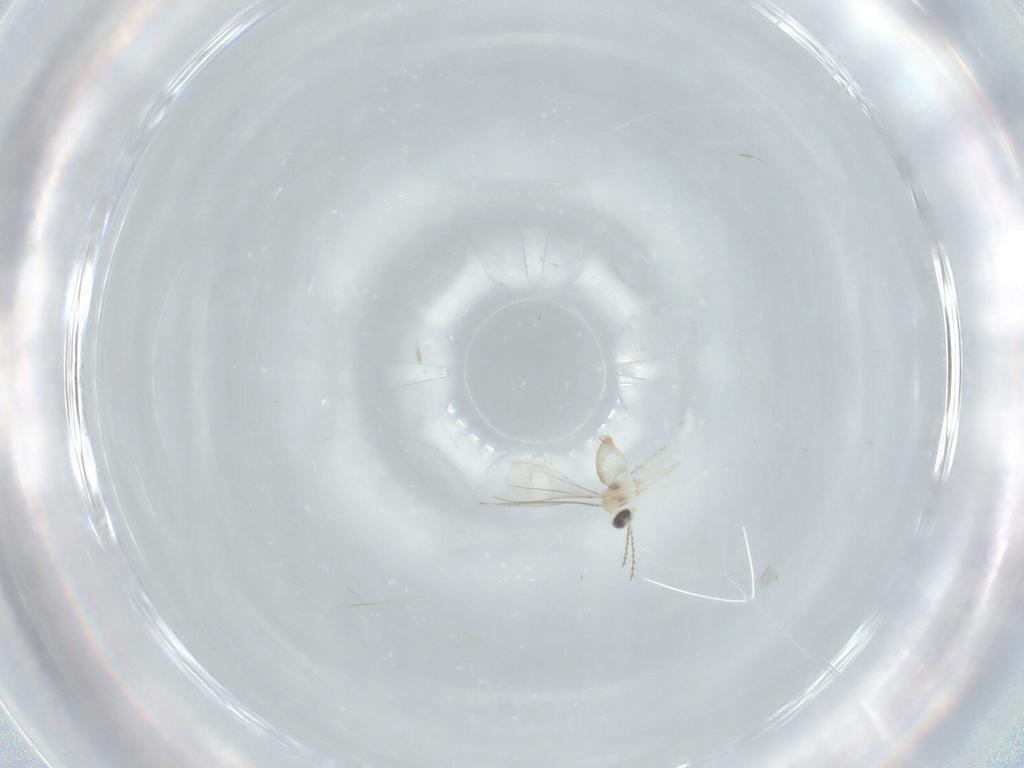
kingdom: Animalia
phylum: Arthropoda
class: Insecta
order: Diptera
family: Cecidomyiidae
